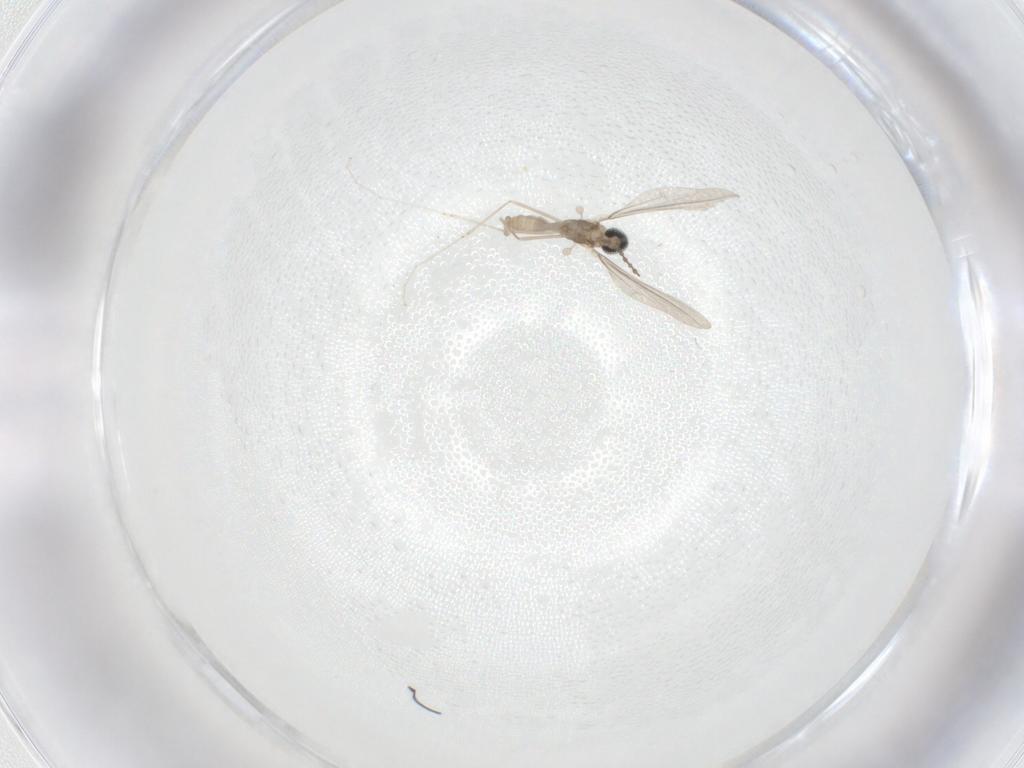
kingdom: Animalia
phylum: Arthropoda
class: Insecta
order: Diptera
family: Cecidomyiidae
